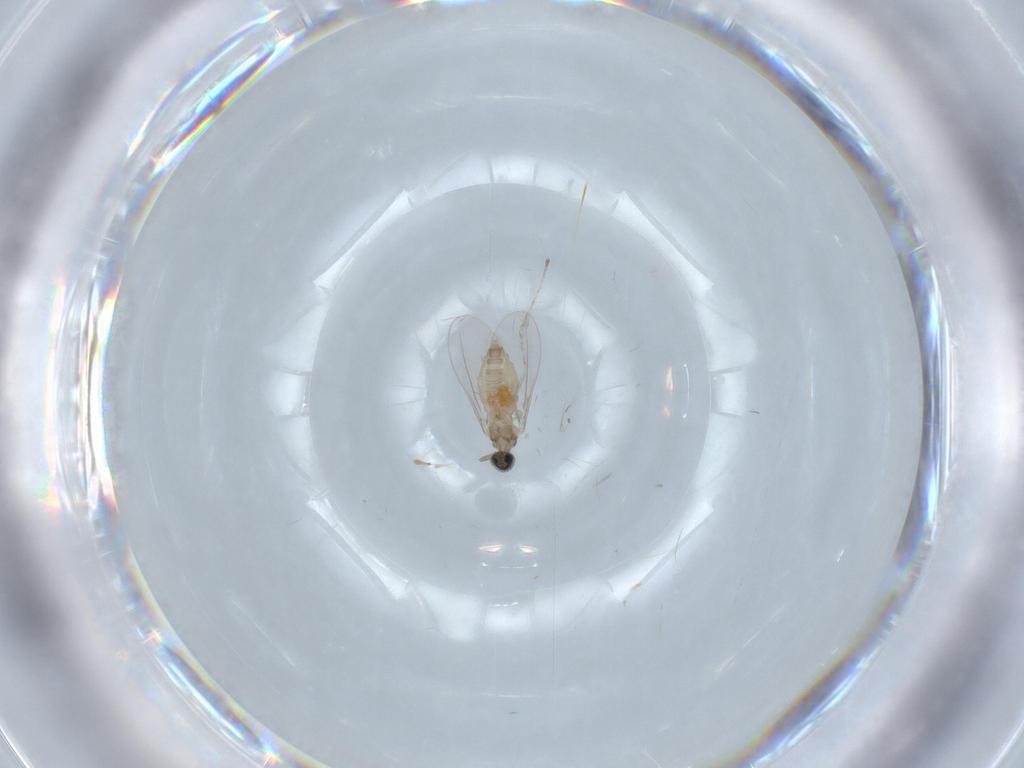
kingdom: Animalia
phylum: Arthropoda
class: Insecta
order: Diptera
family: Cecidomyiidae
